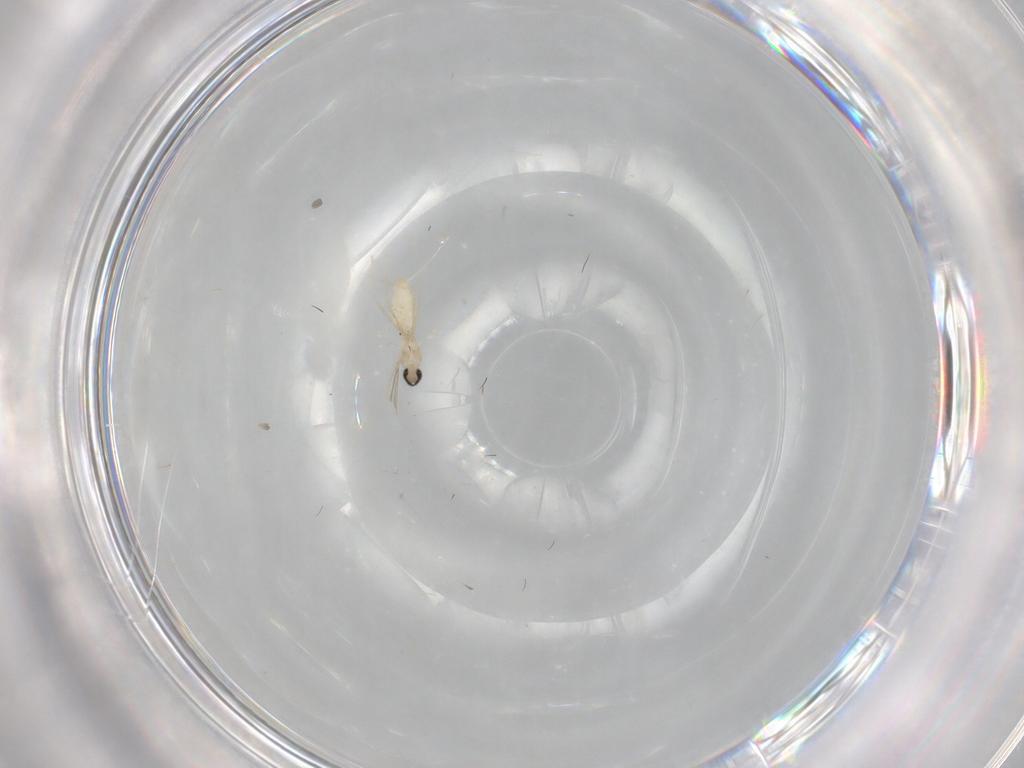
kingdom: Animalia
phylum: Arthropoda
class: Insecta
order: Diptera
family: Cecidomyiidae
